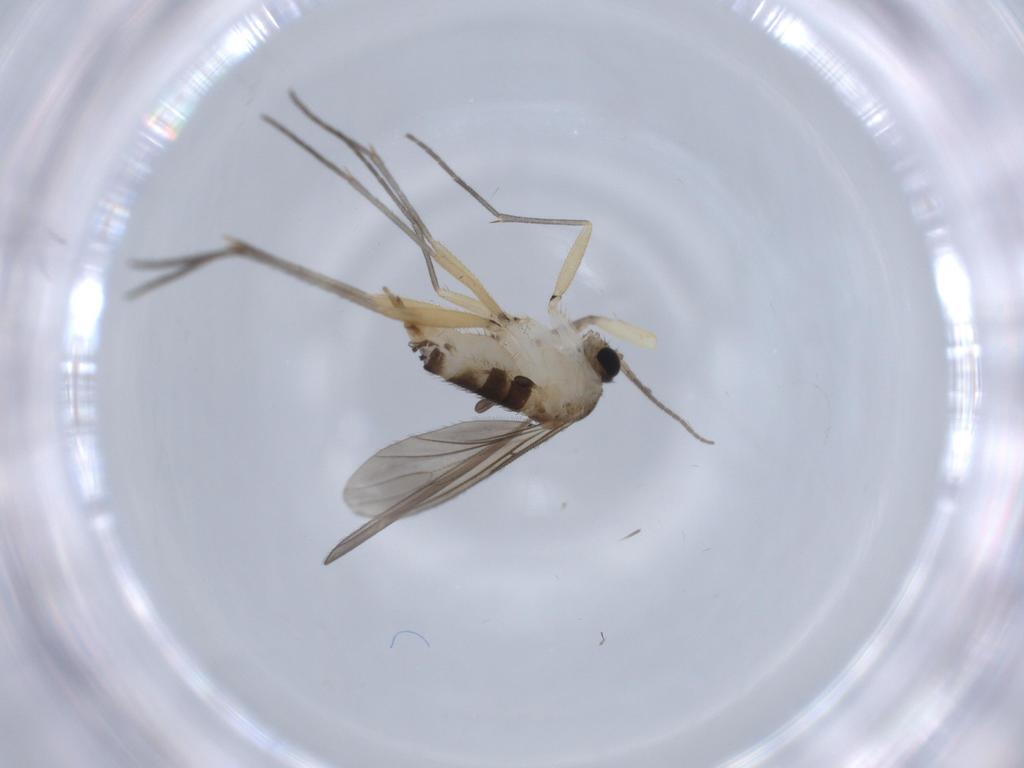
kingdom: Animalia
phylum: Arthropoda
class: Insecta
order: Diptera
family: Sciaridae
